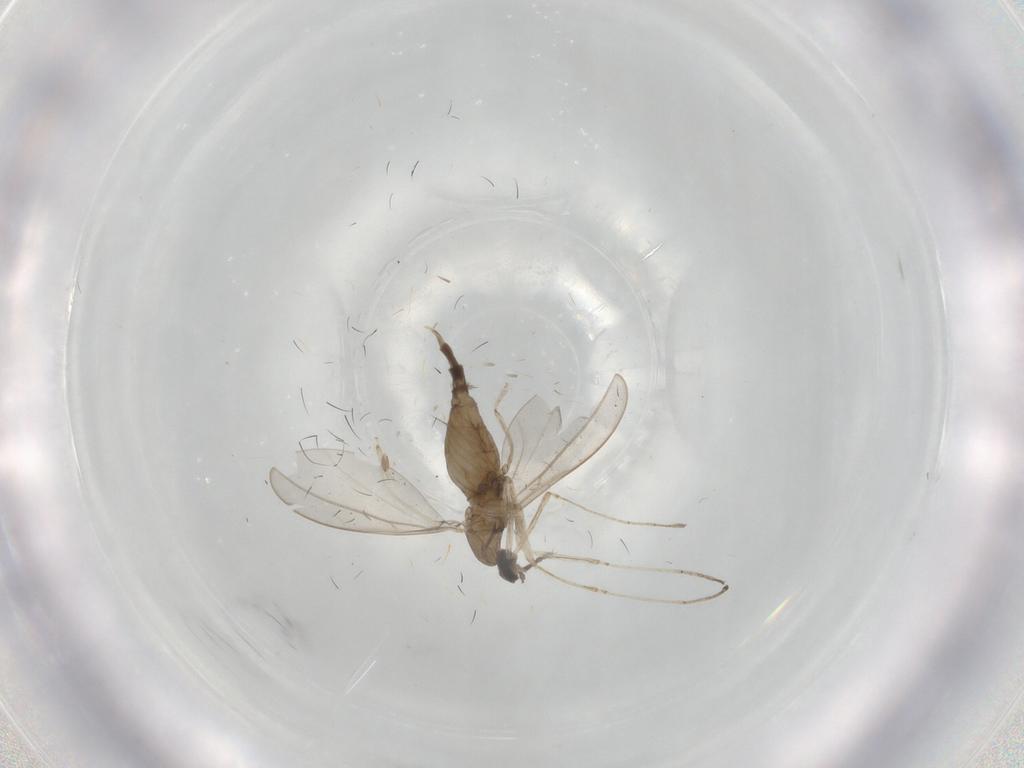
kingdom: Animalia
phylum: Arthropoda
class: Insecta
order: Diptera
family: Cecidomyiidae
